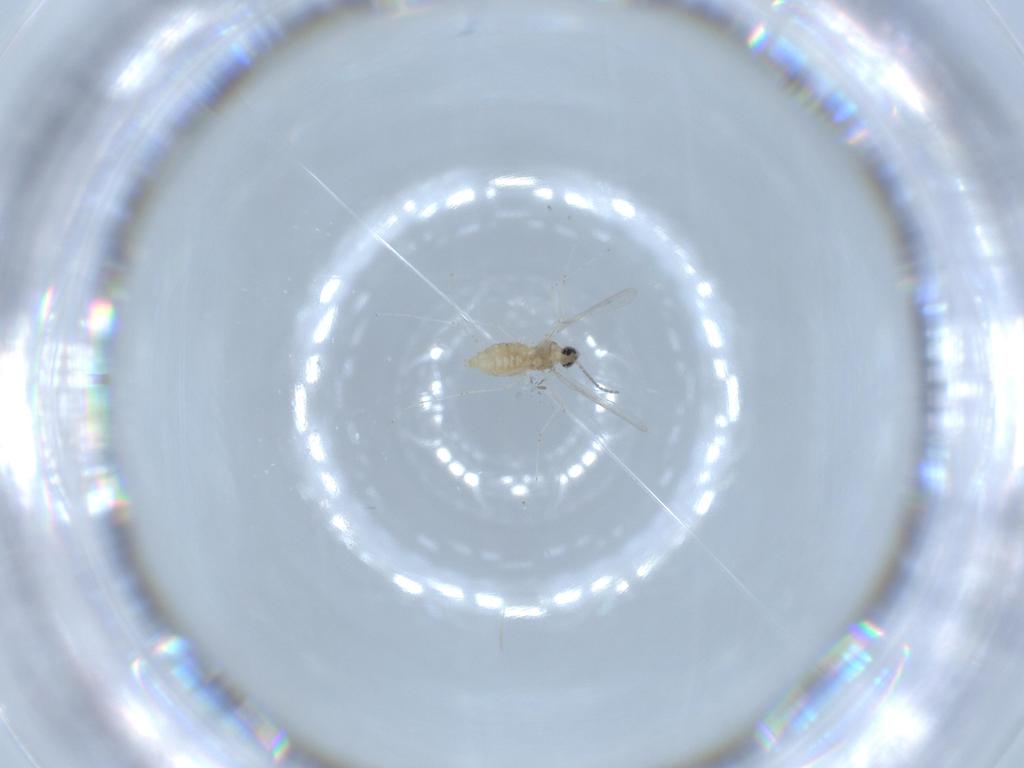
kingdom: Animalia
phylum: Arthropoda
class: Insecta
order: Diptera
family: Cecidomyiidae
